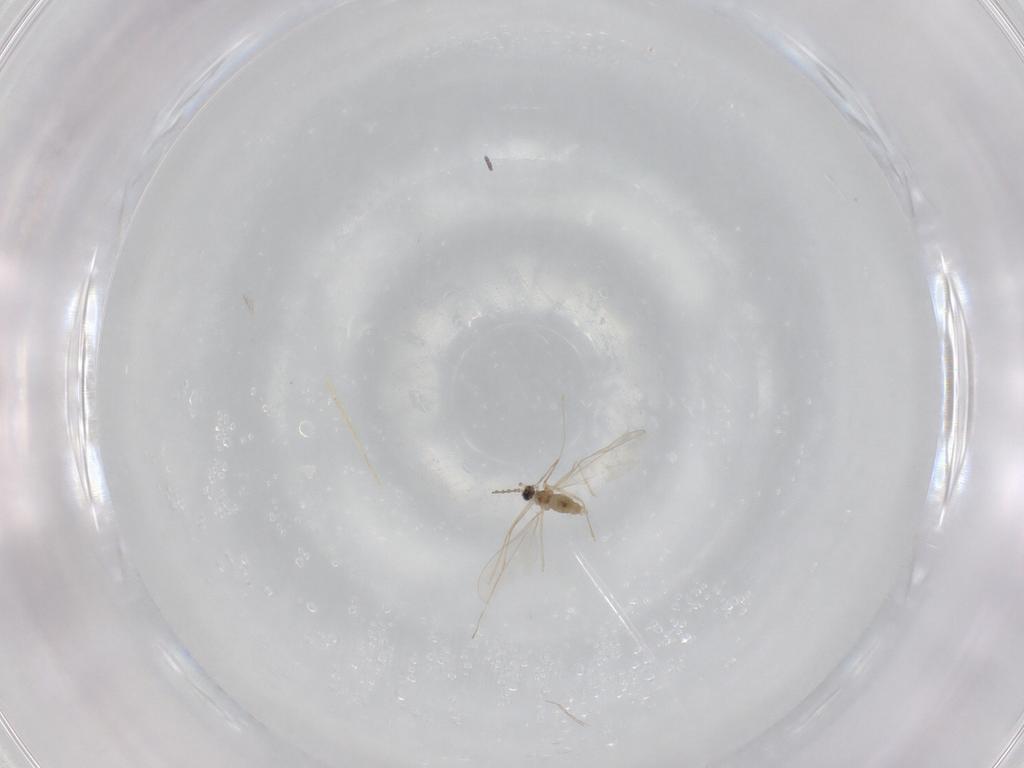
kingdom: Animalia
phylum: Arthropoda
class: Insecta
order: Diptera
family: Cecidomyiidae
